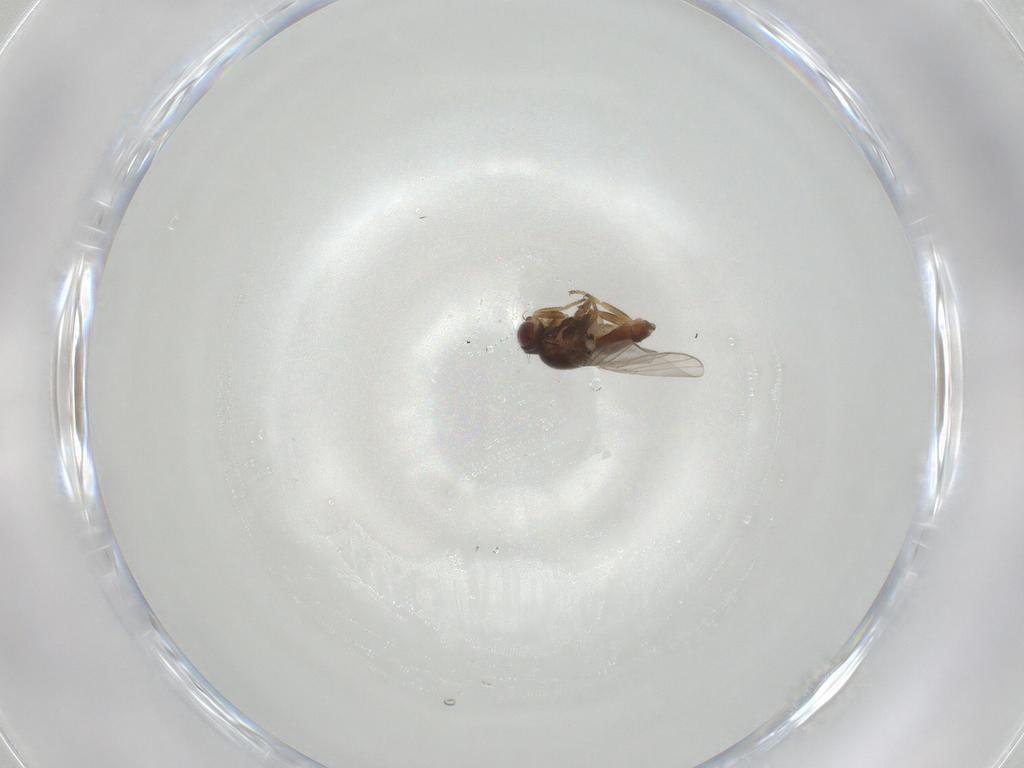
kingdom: Animalia
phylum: Arthropoda
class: Insecta
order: Diptera
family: Chloropidae
